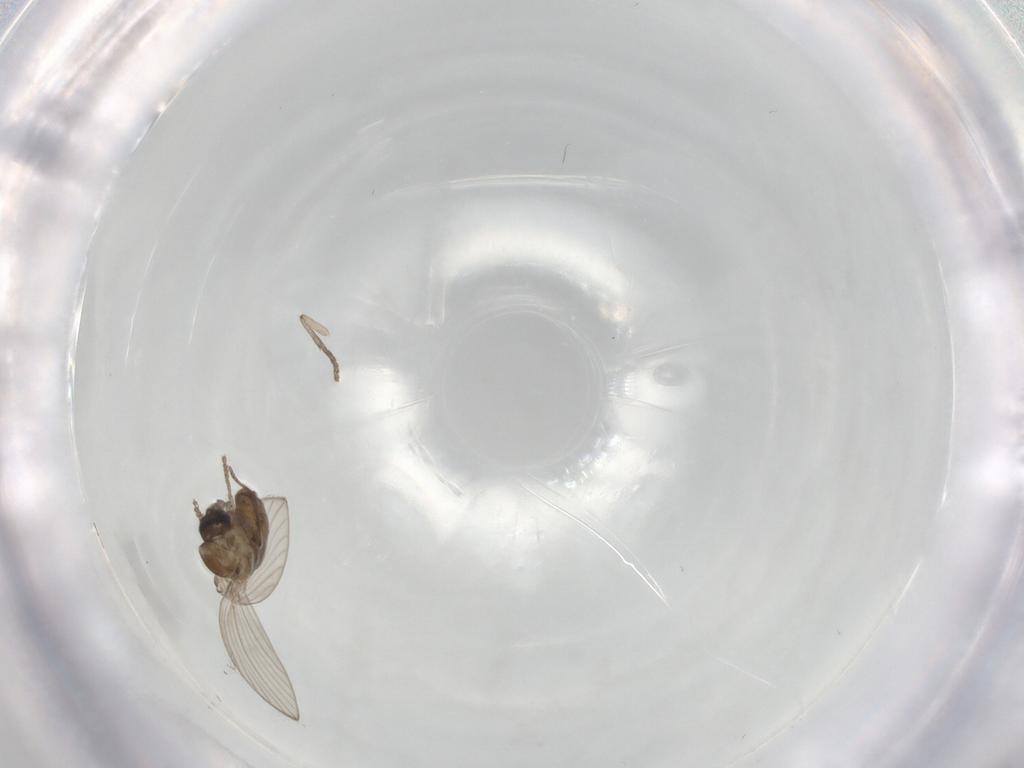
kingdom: Animalia
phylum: Arthropoda
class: Insecta
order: Diptera
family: Psychodidae
